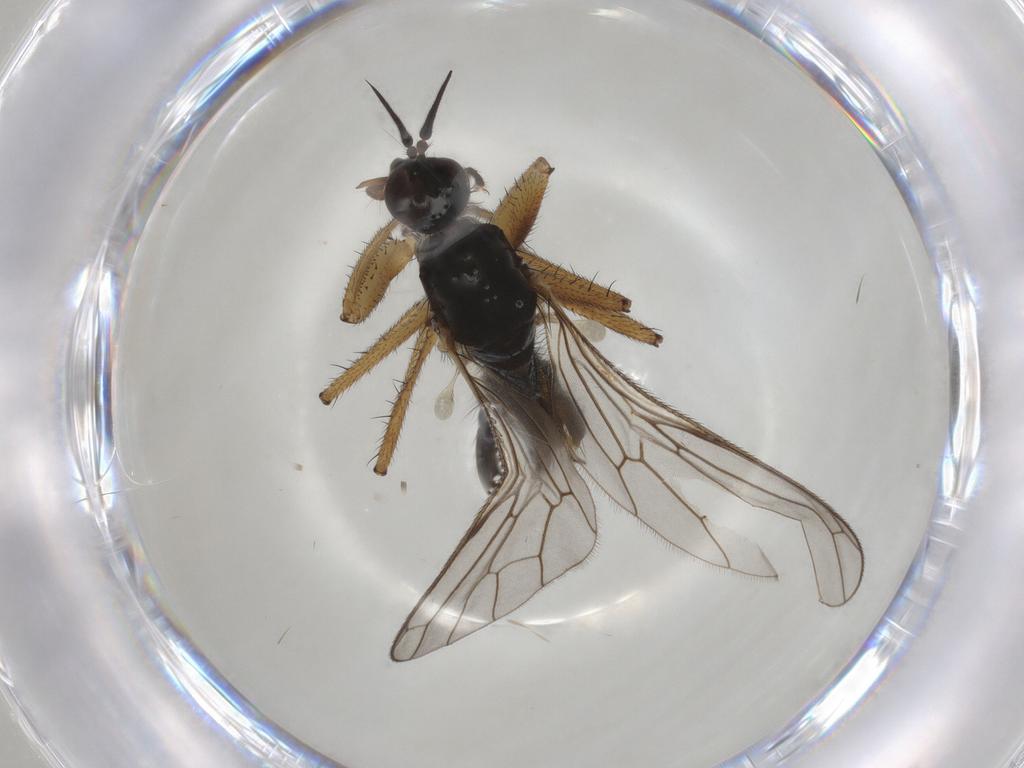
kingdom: Animalia
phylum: Arthropoda
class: Insecta
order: Diptera
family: Empididae
